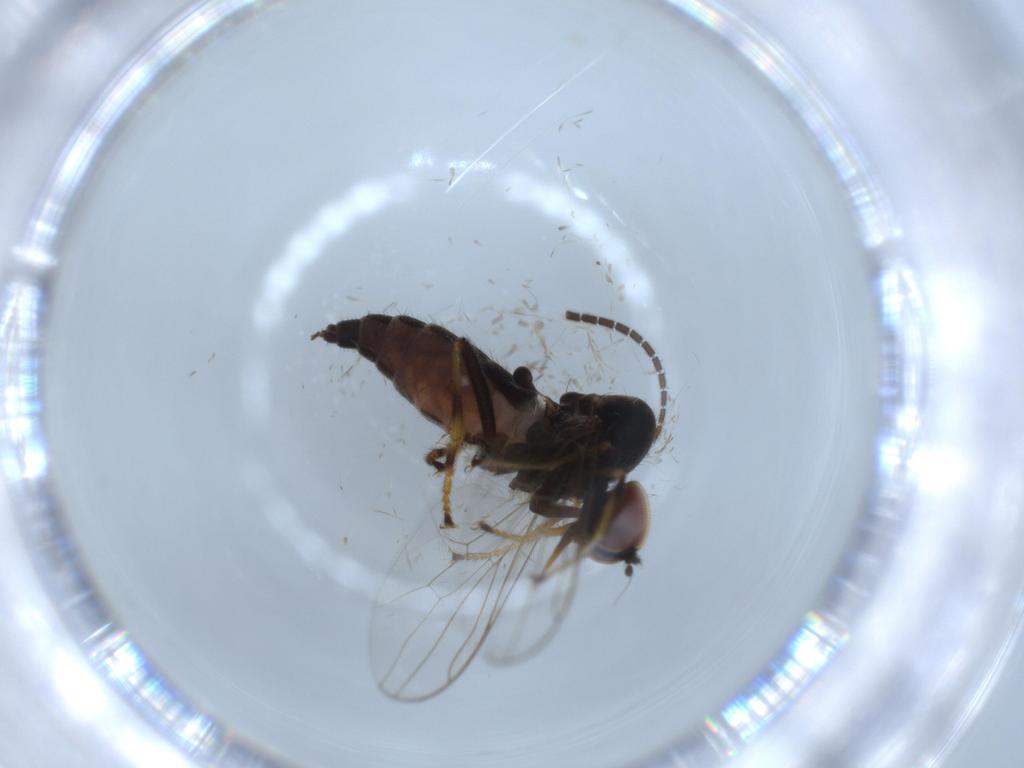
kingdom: Animalia
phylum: Arthropoda
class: Insecta
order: Diptera
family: Hybotidae
